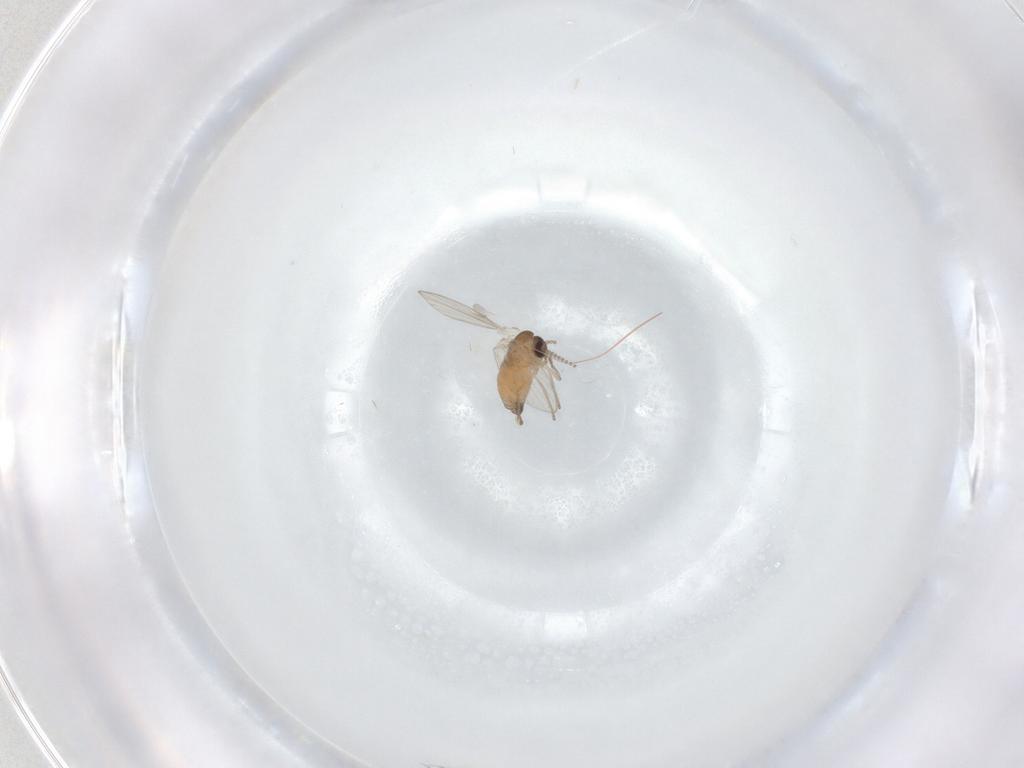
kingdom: Animalia
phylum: Arthropoda
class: Insecta
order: Diptera
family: Psychodidae
